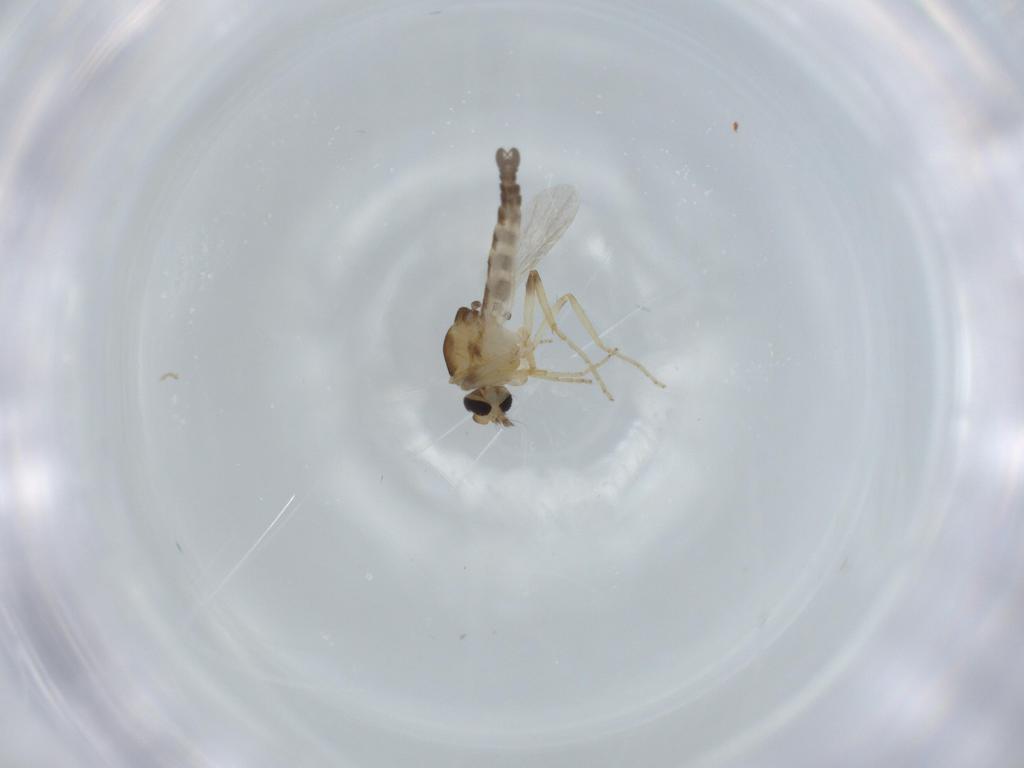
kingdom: Animalia
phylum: Arthropoda
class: Insecta
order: Diptera
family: Ceratopogonidae
